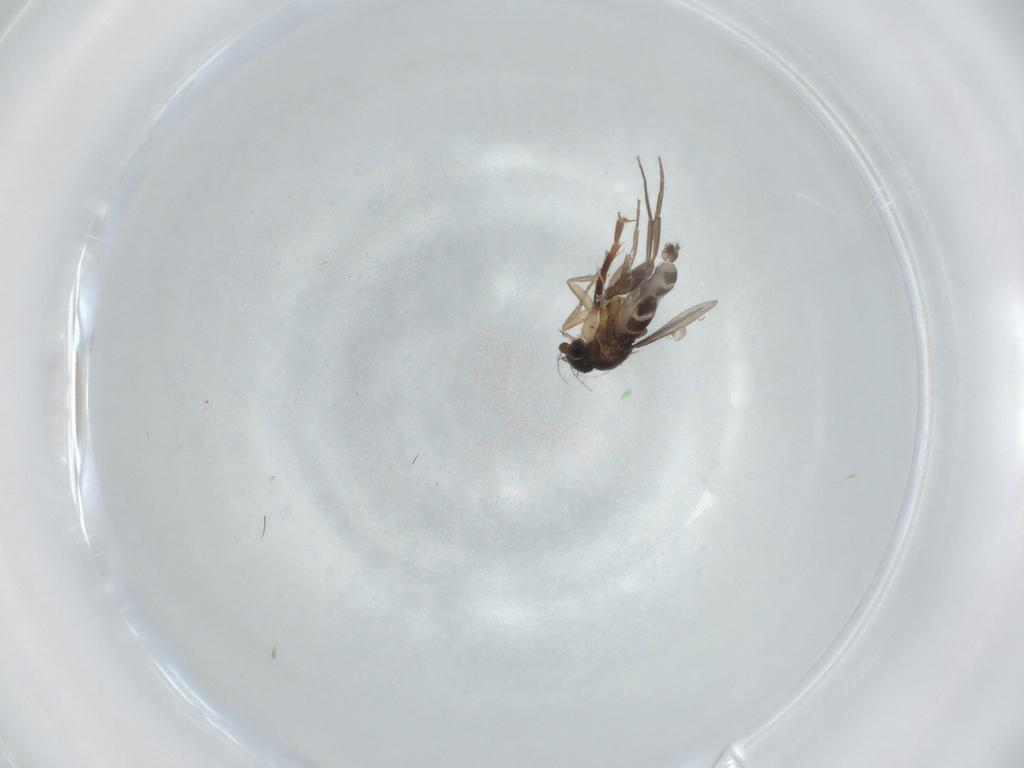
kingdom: Animalia
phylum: Arthropoda
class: Insecta
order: Diptera
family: Phoridae
